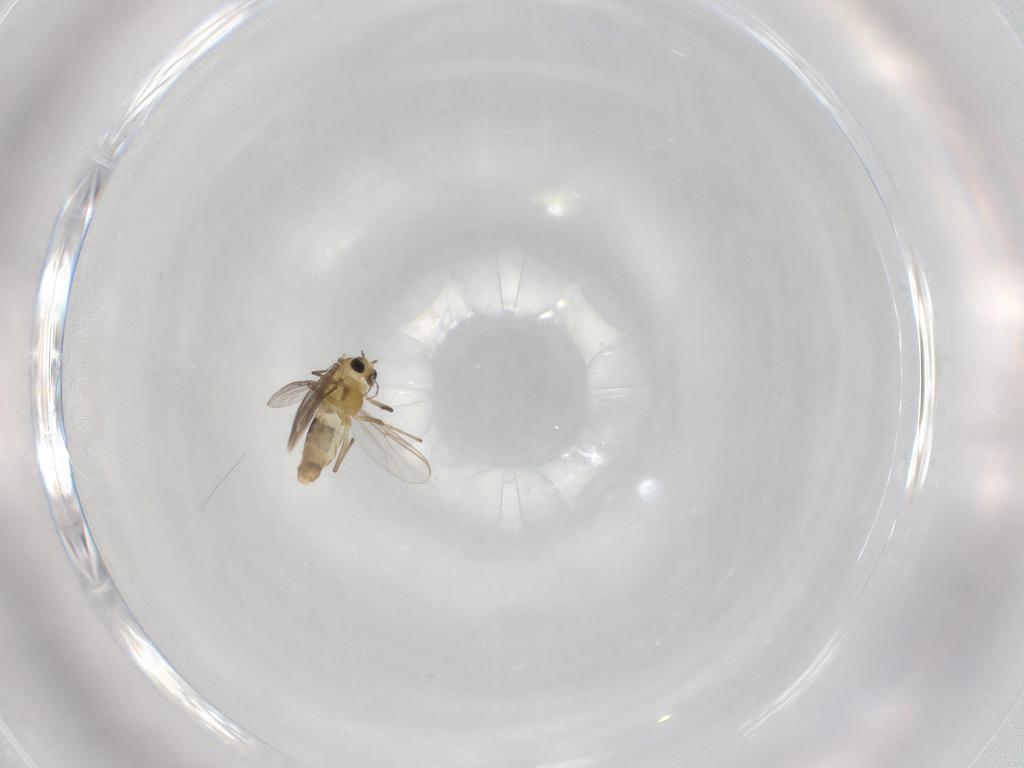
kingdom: Animalia
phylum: Arthropoda
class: Insecta
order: Diptera
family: Chironomidae
